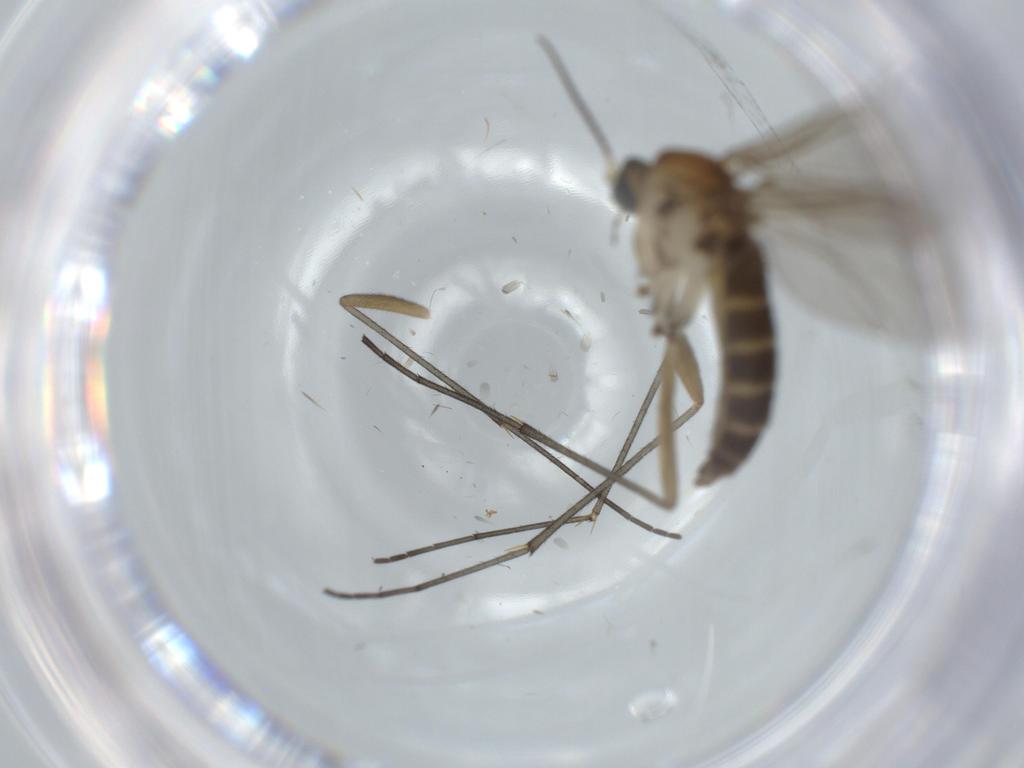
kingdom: Animalia
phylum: Arthropoda
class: Insecta
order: Diptera
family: Sciaridae
